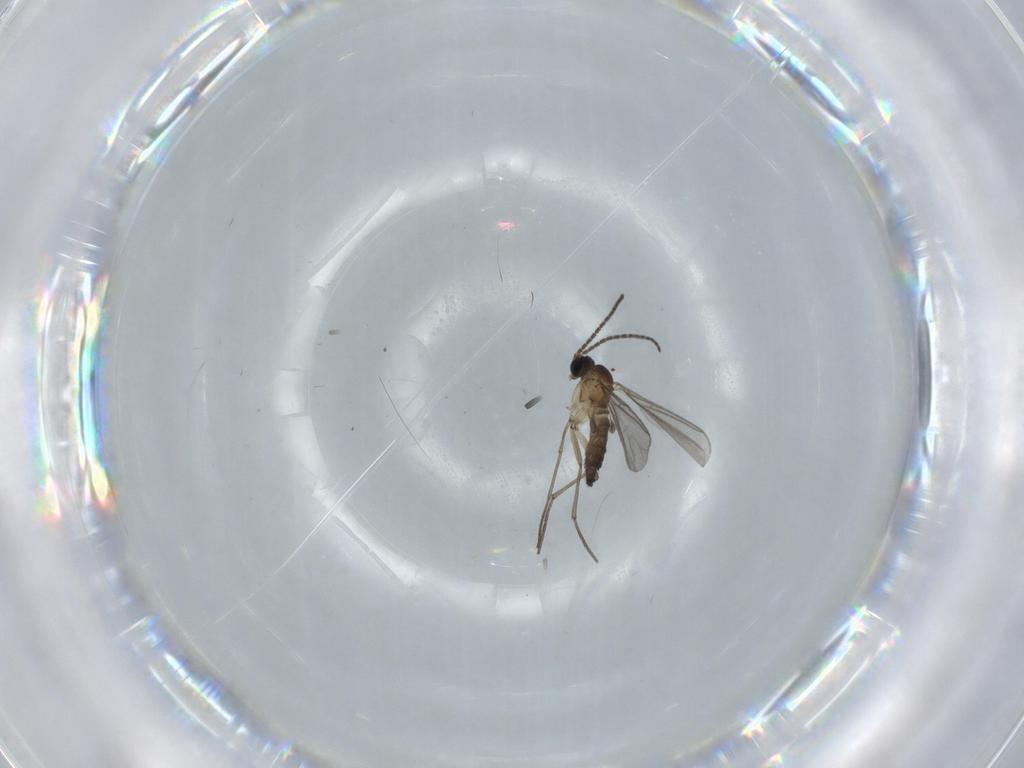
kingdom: Animalia
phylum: Arthropoda
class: Insecta
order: Diptera
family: Sciaridae
